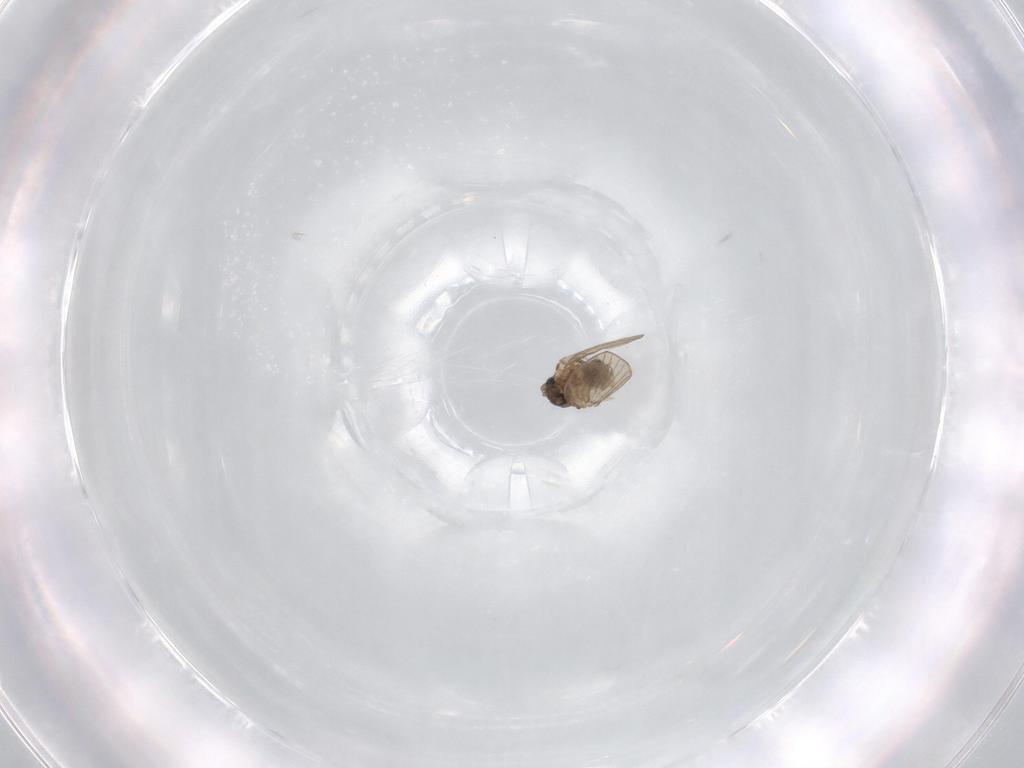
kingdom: Animalia
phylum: Arthropoda
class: Insecta
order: Diptera
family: Psychodidae
